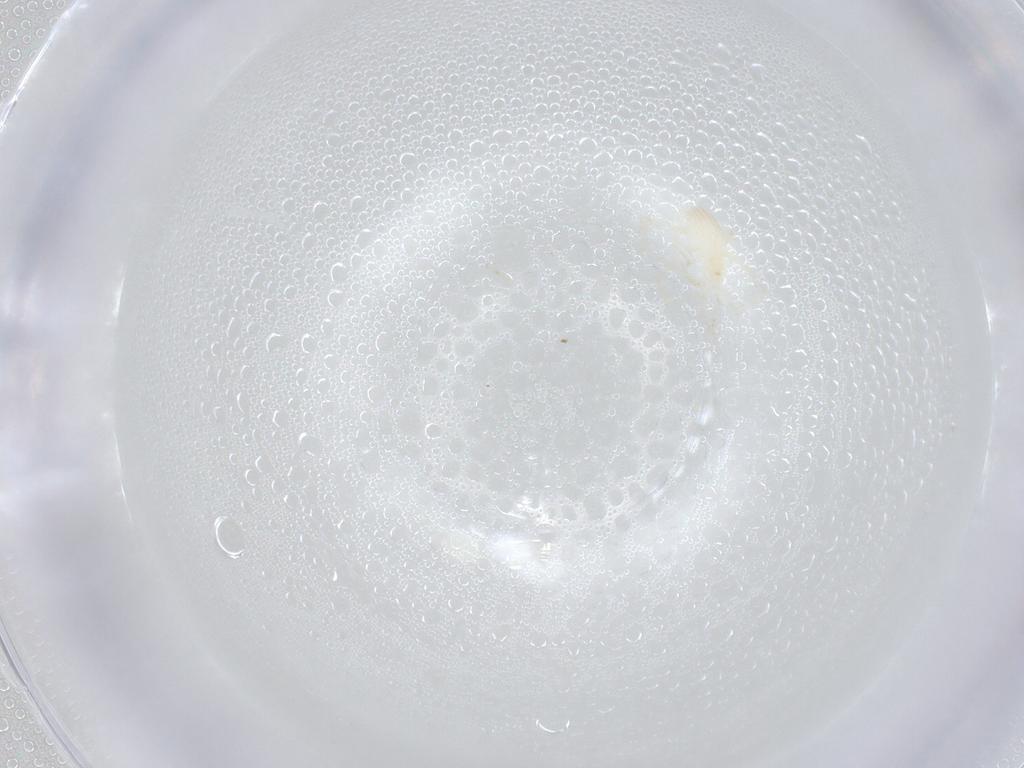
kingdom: Animalia
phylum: Arthropoda
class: Arachnida
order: Trombidiformes
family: Erythraeidae
